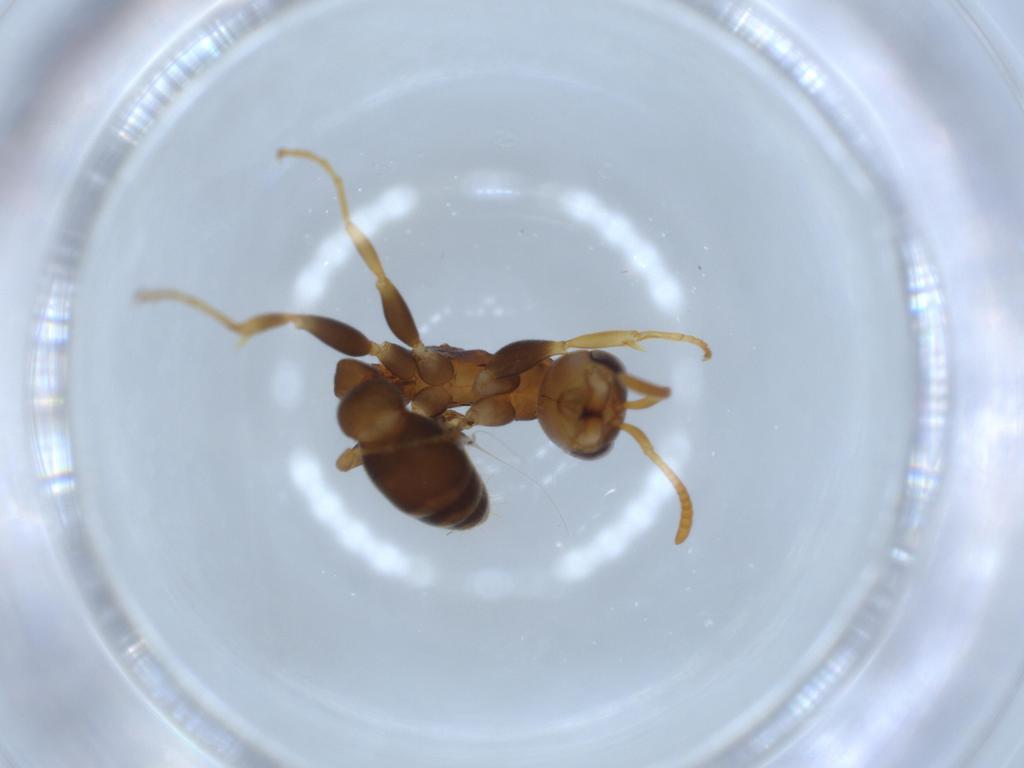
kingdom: Animalia
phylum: Arthropoda
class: Insecta
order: Hymenoptera
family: Formicidae
